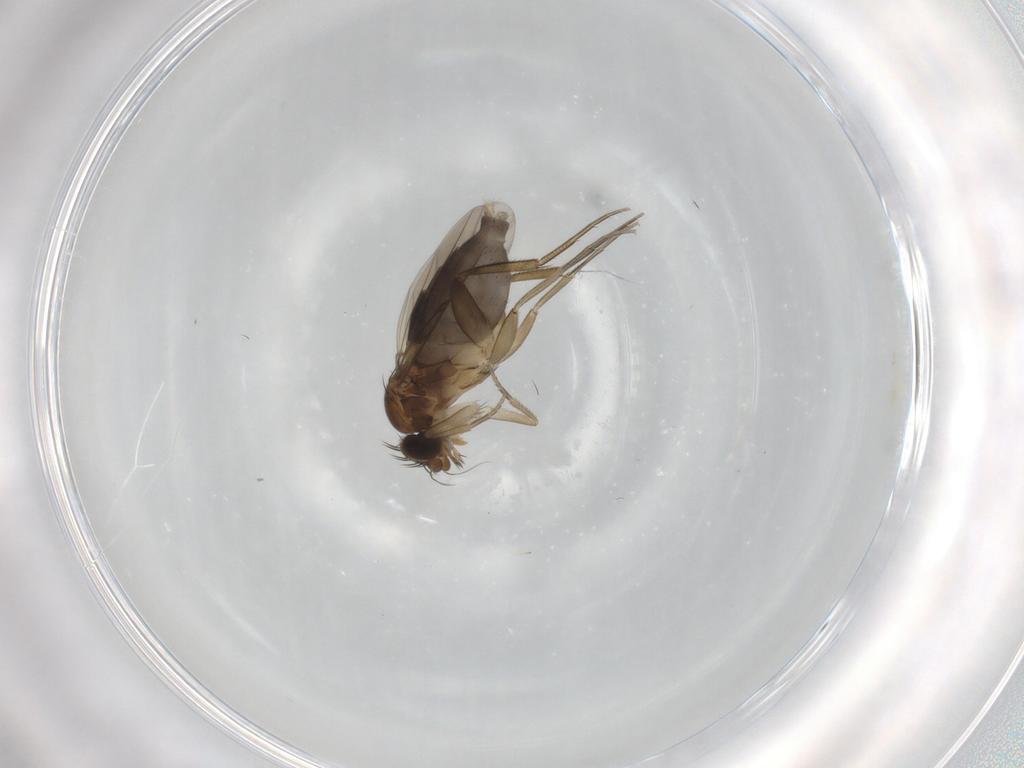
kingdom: Animalia
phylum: Arthropoda
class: Insecta
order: Diptera
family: Phoridae
